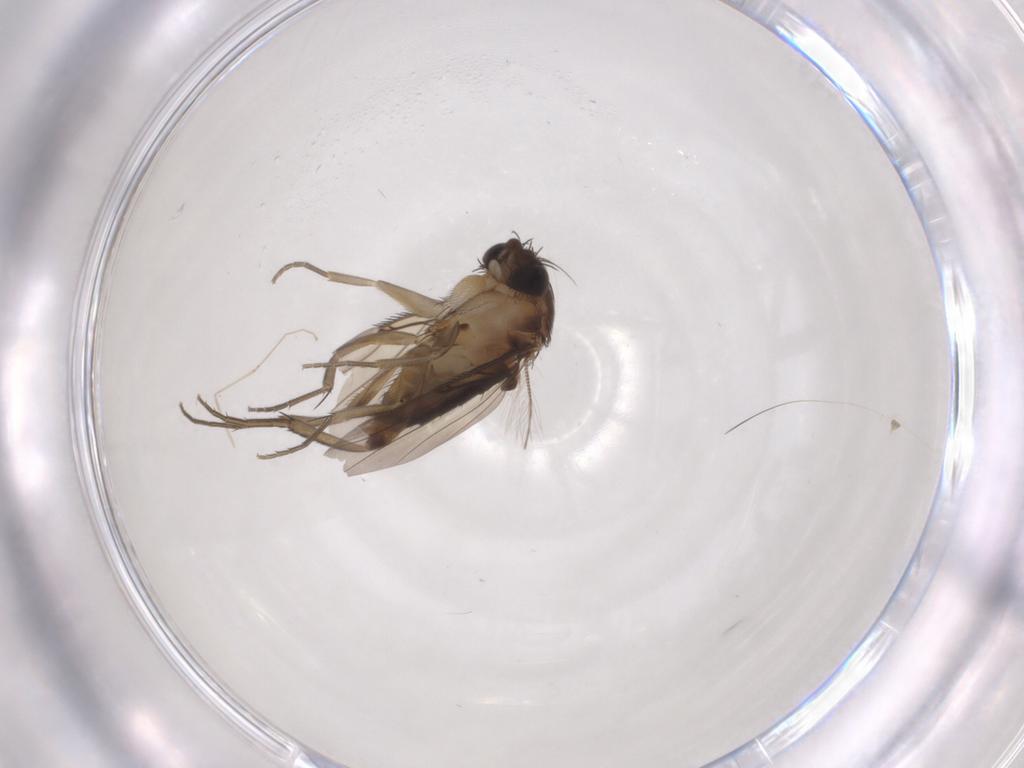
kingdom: Animalia
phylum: Arthropoda
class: Insecta
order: Diptera
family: Phoridae
